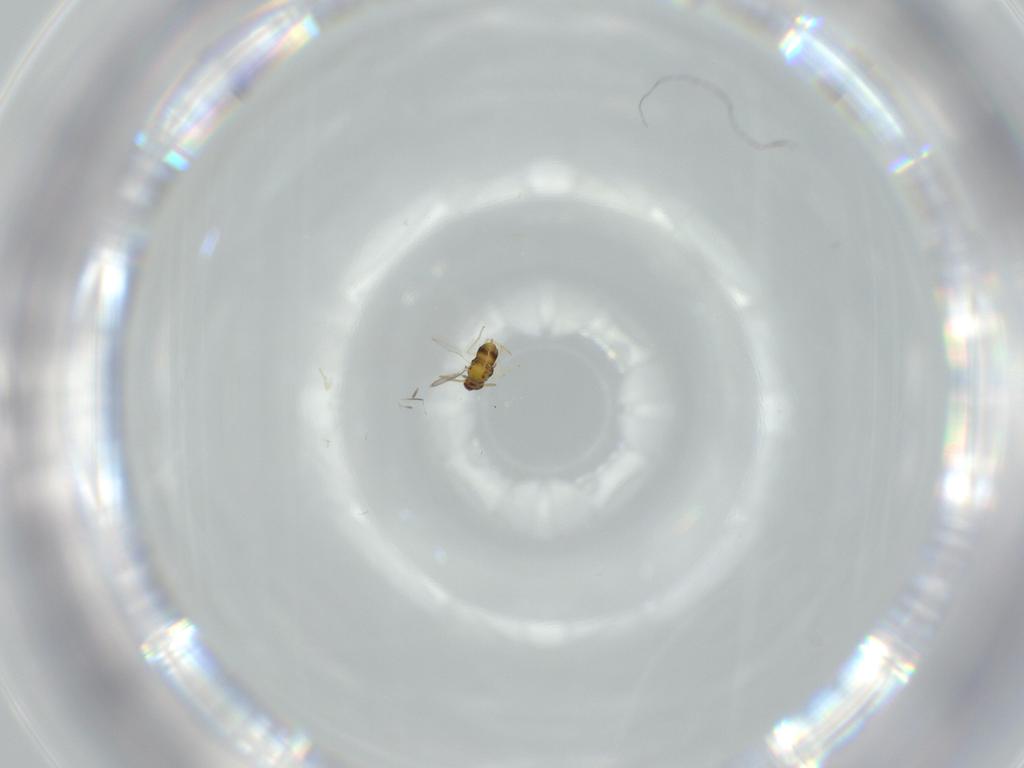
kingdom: Animalia
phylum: Arthropoda
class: Insecta
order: Hymenoptera
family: Aphelinidae
